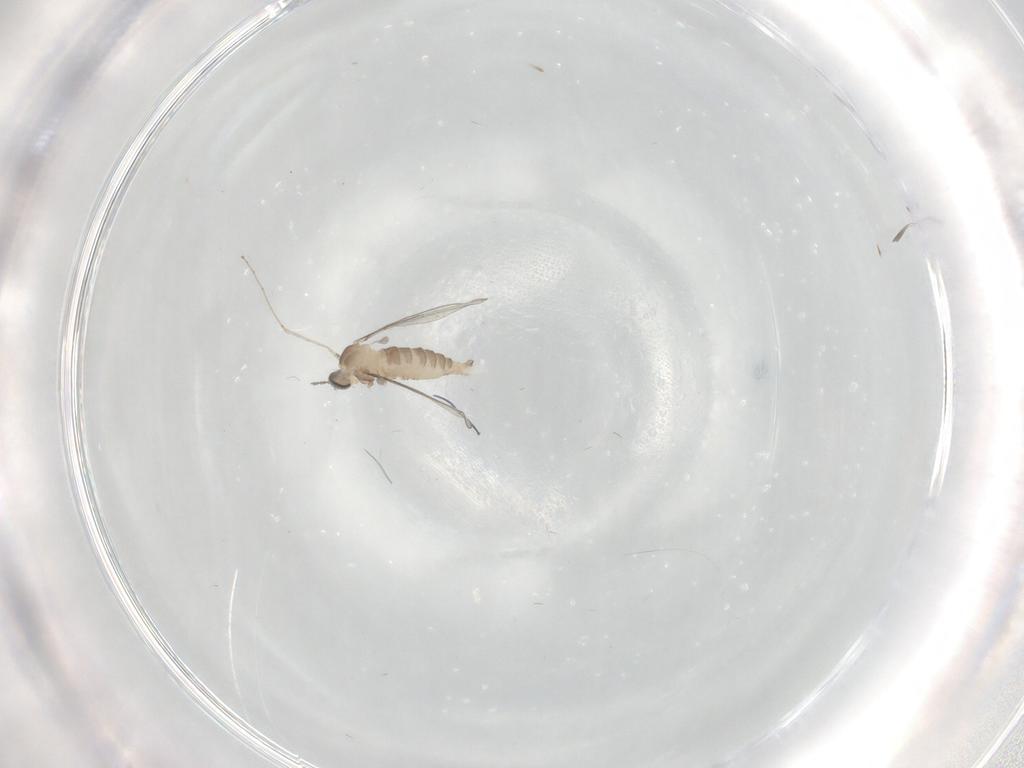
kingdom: Animalia
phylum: Arthropoda
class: Insecta
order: Diptera
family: Cecidomyiidae
